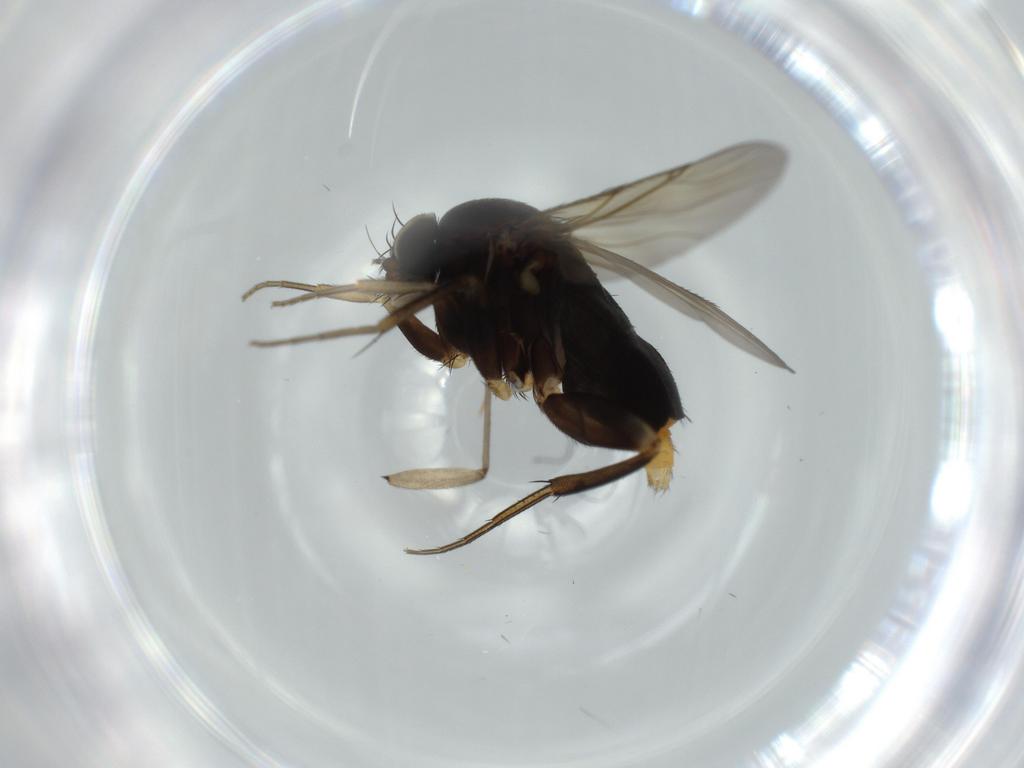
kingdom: Animalia
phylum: Arthropoda
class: Insecta
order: Diptera
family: Sciaridae
